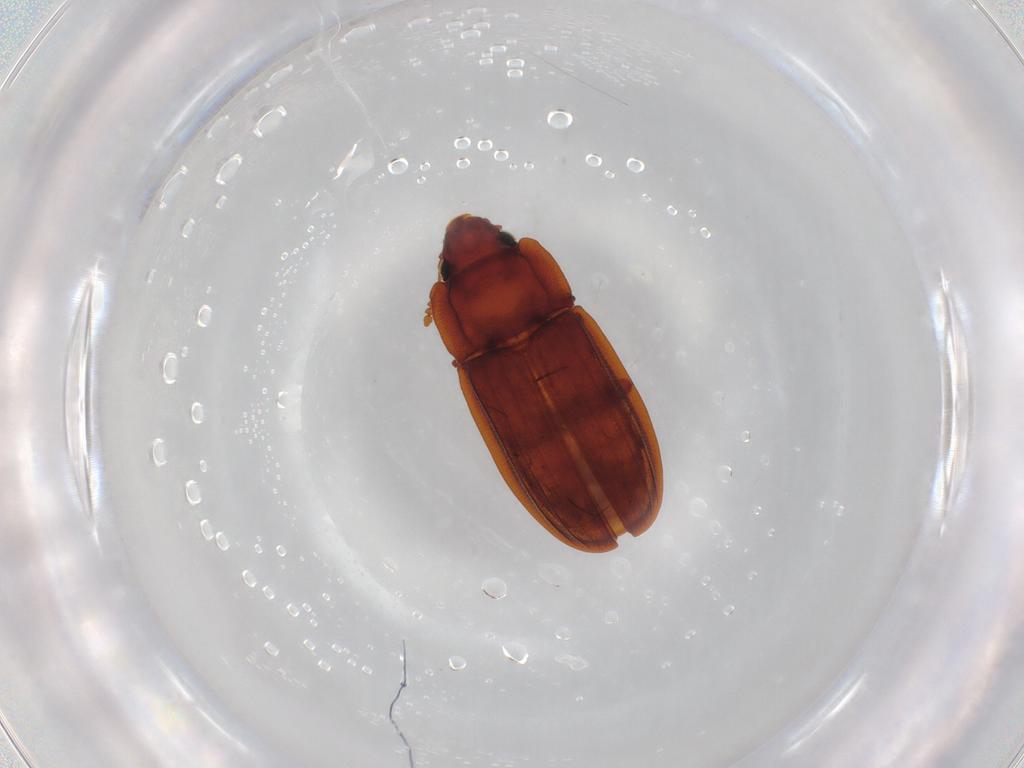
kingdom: Animalia
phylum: Arthropoda
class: Insecta
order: Coleoptera
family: Laemophloeidae
